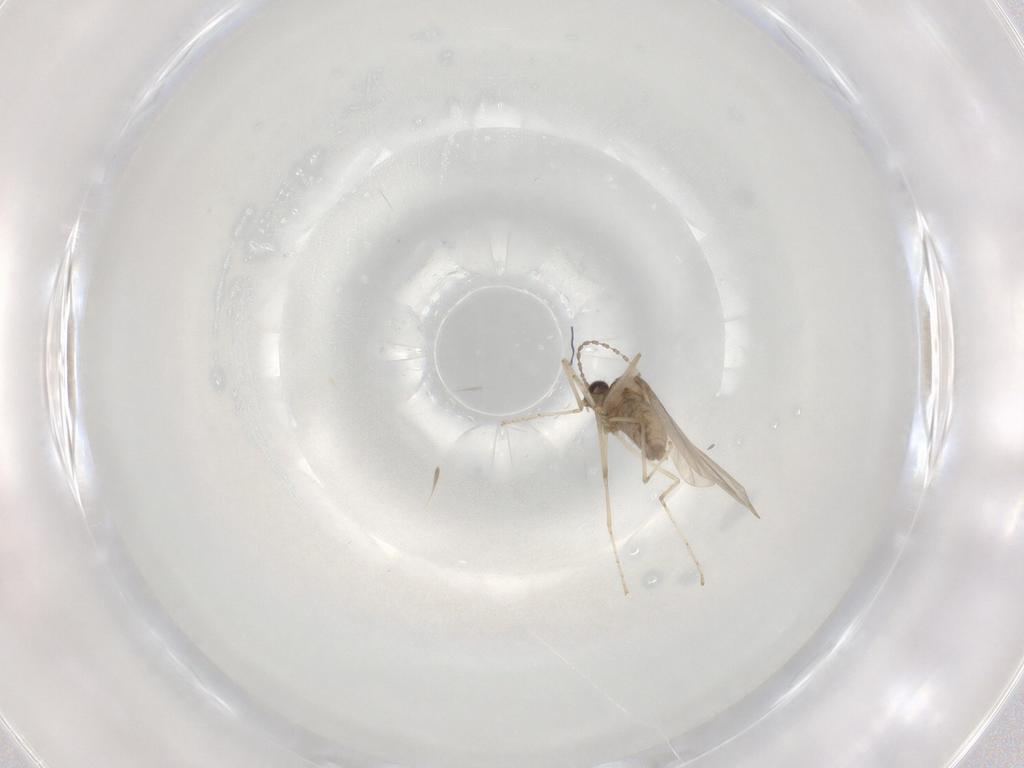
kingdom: Animalia
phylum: Arthropoda
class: Insecta
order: Diptera
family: Cecidomyiidae
